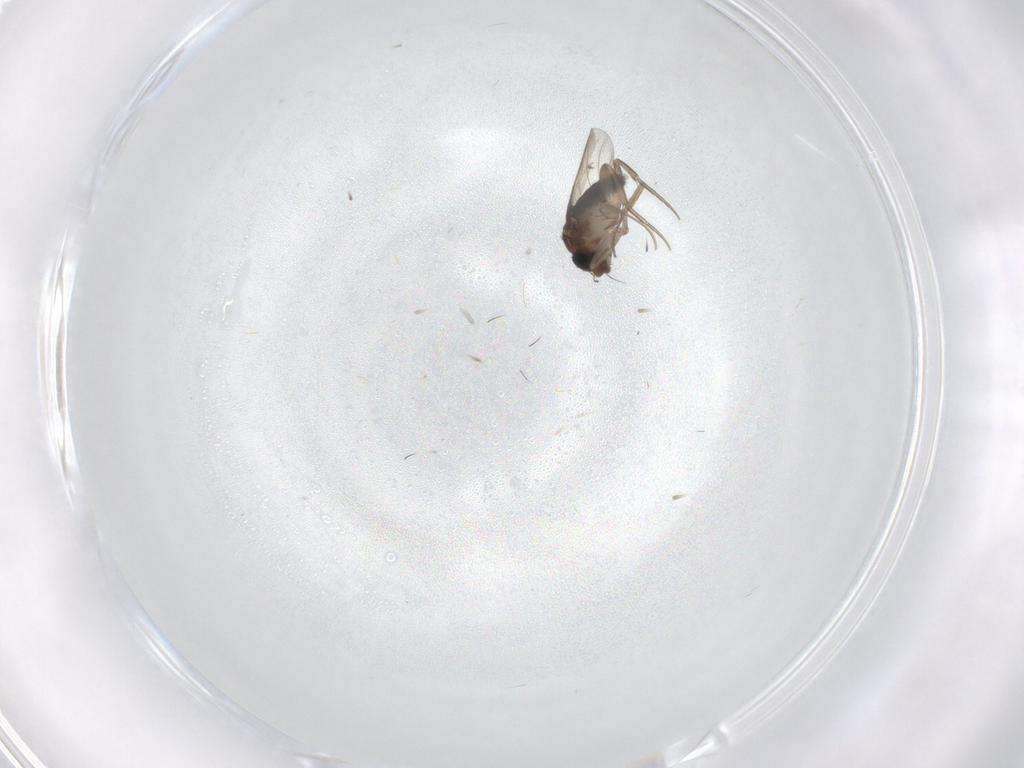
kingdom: Animalia
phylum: Arthropoda
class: Insecta
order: Diptera
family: Phoridae
